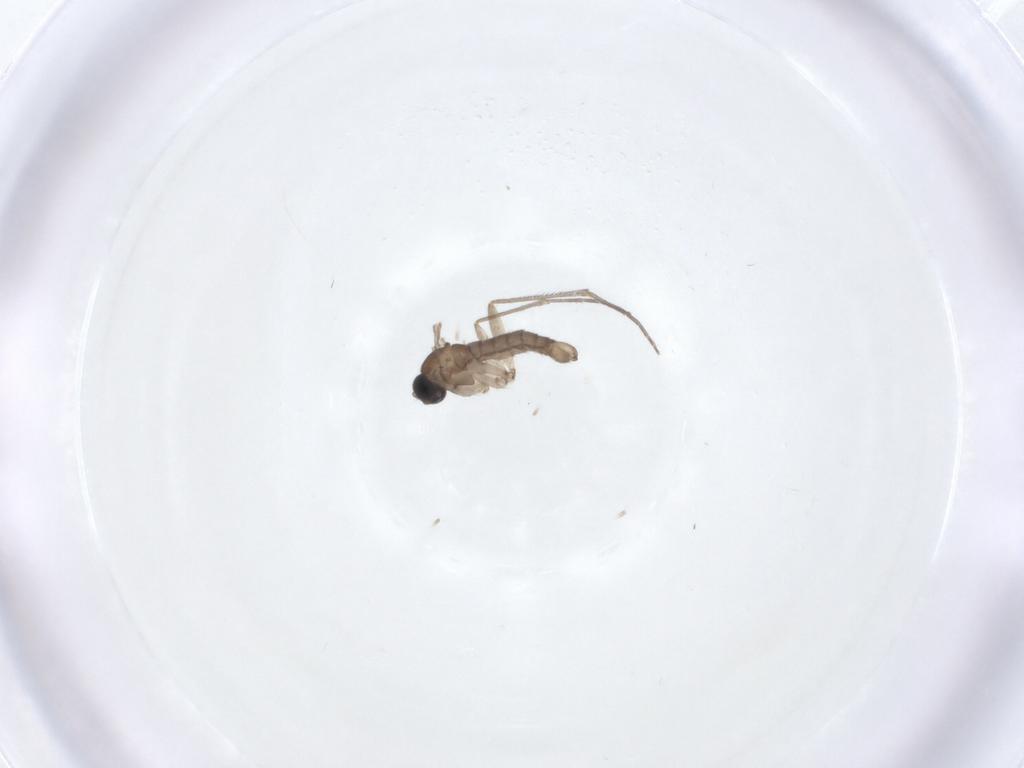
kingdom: Animalia
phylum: Arthropoda
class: Insecta
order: Diptera
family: Sciaridae
